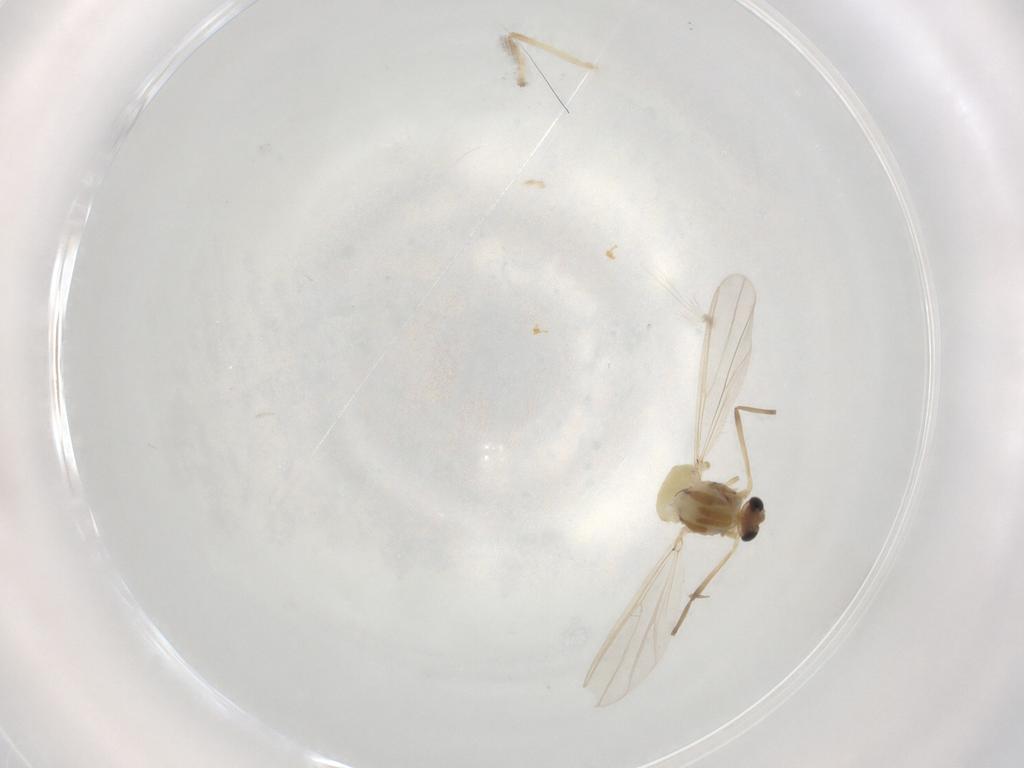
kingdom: Animalia
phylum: Arthropoda
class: Insecta
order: Diptera
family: Chironomidae
